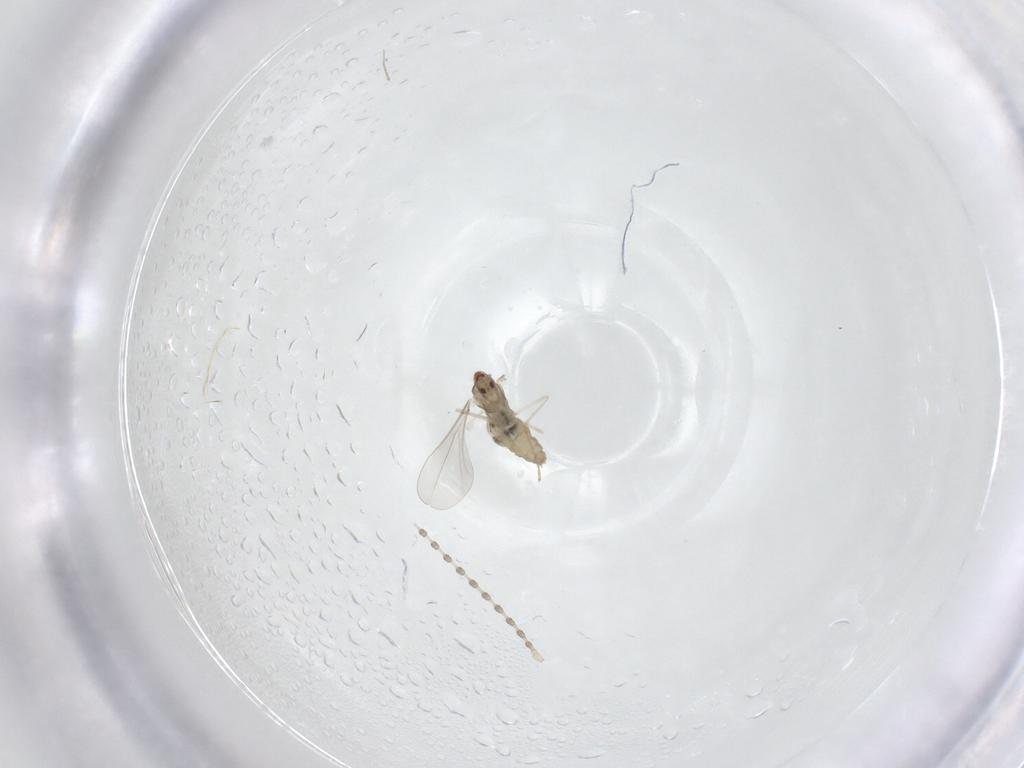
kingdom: Animalia
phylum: Arthropoda
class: Insecta
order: Diptera
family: Cecidomyiidae
